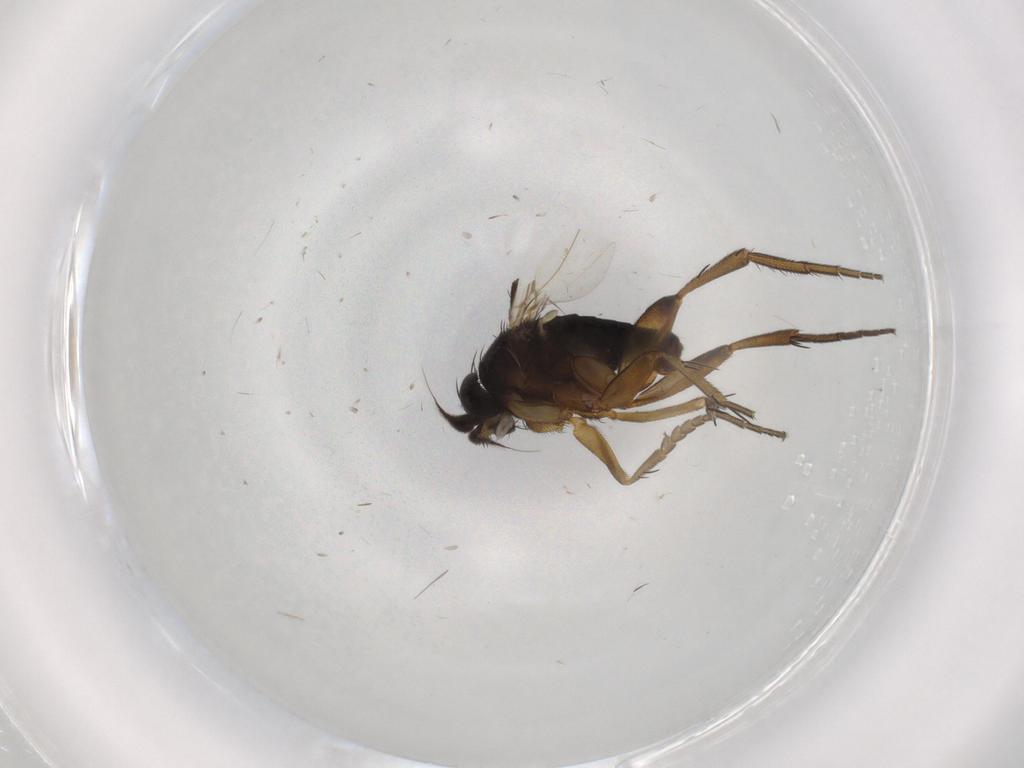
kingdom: Animalia
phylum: Arthropoda
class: Insecta
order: Diptera
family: Phoridae
